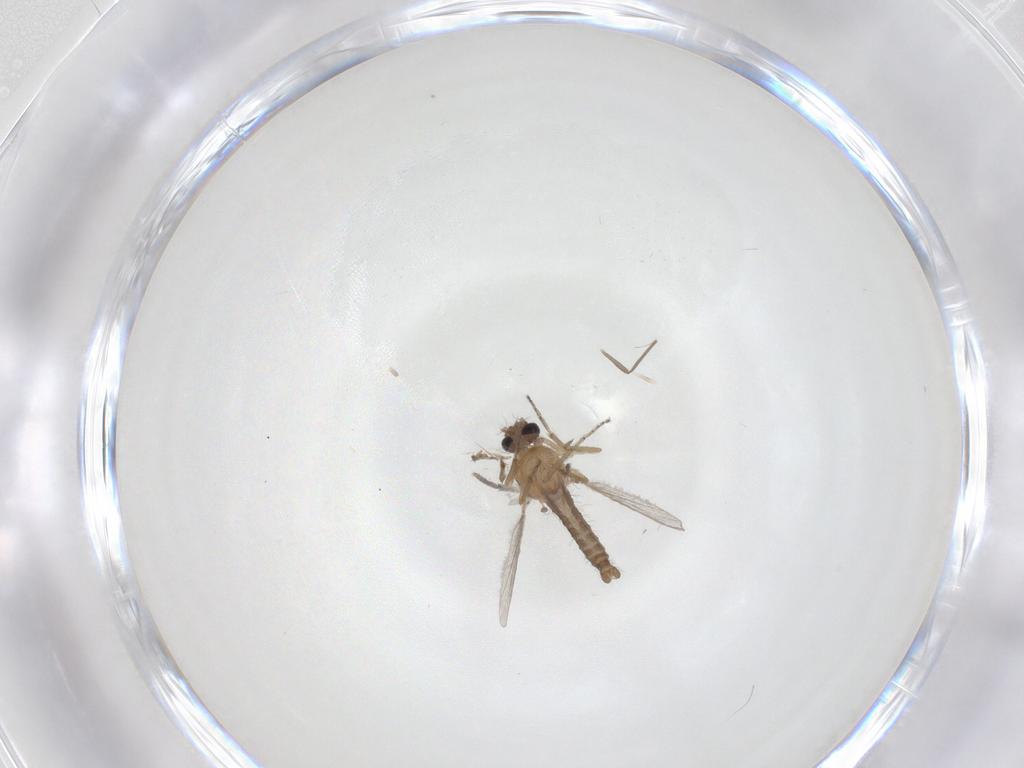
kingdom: Animalia
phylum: Arthropoda
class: Insecta
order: Diptera
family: Ceratopogonidae
